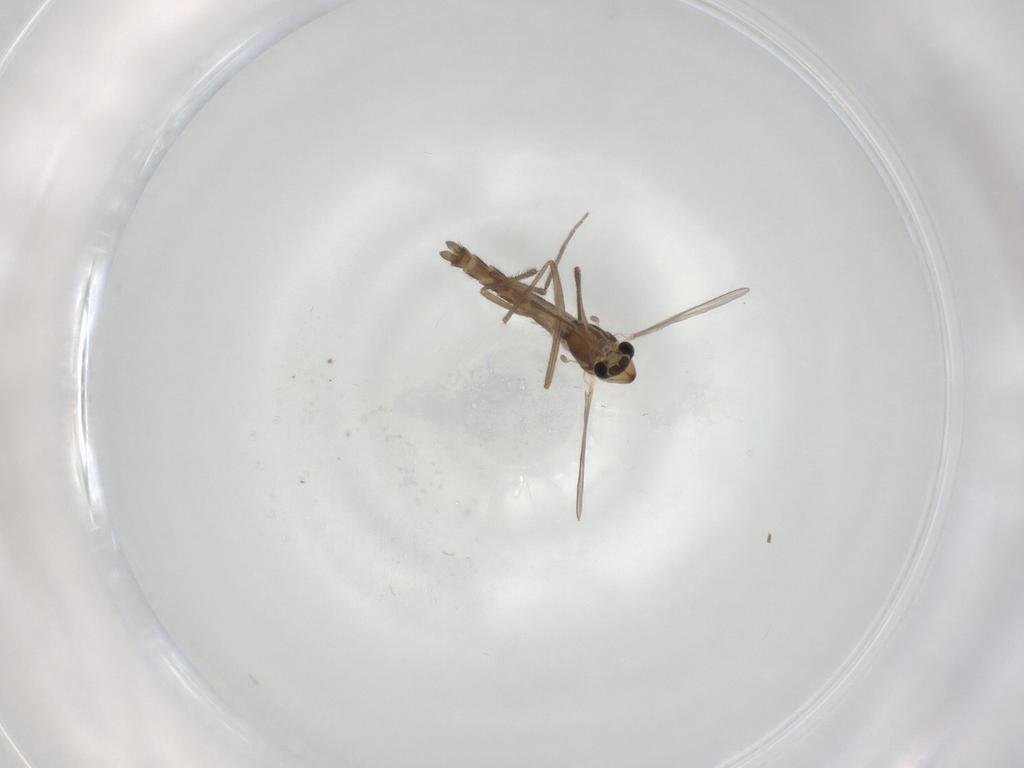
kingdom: Animalia
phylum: Arthropoda
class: Insecta
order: Diptera
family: Chironomidae
